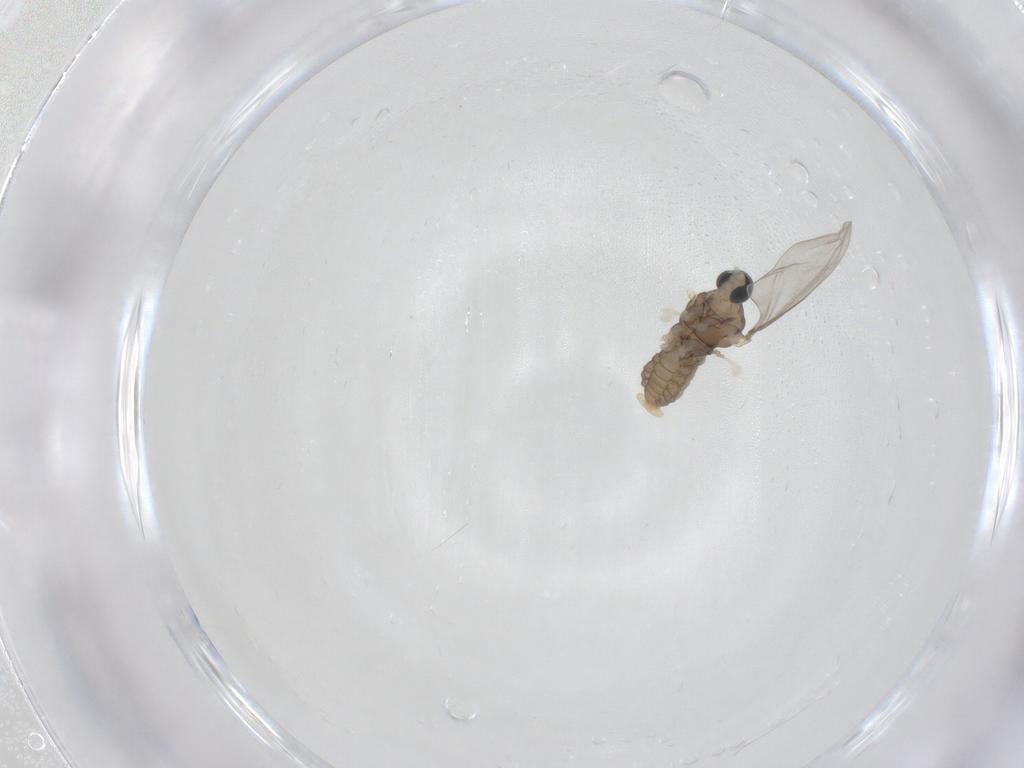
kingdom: Animalia
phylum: Arthropoda
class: Insecta
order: Diptera
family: Cecidomyiidae
